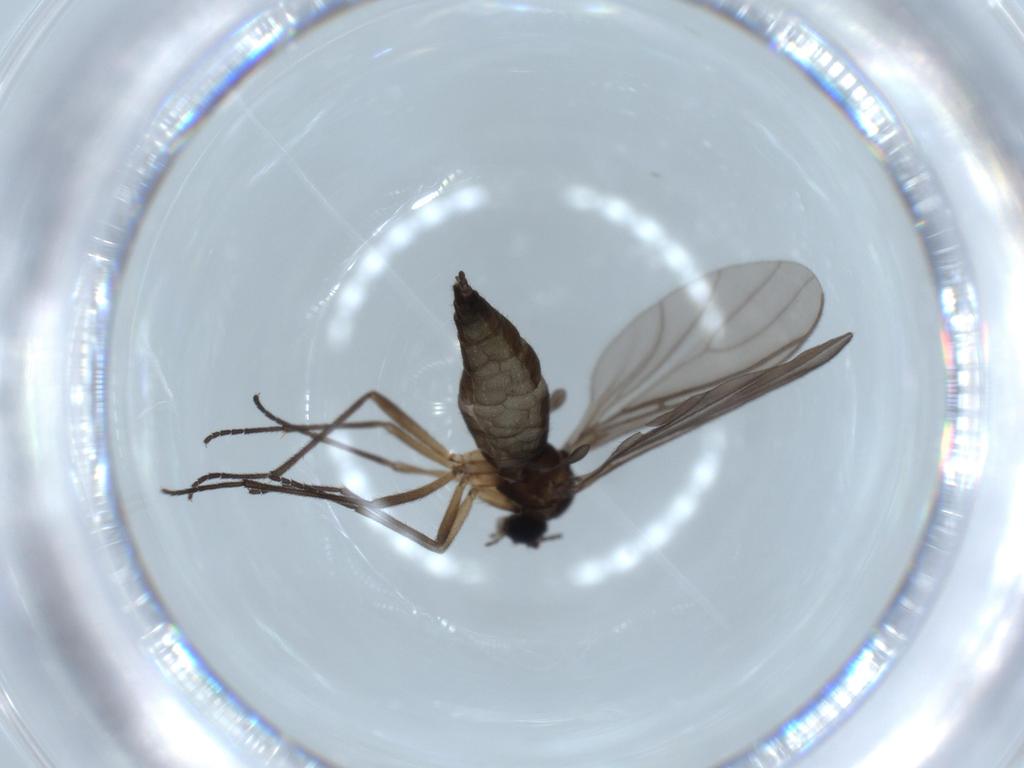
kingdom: Animalia
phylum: Arthropoda
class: Insecta
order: Diptera
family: Sciaridae
